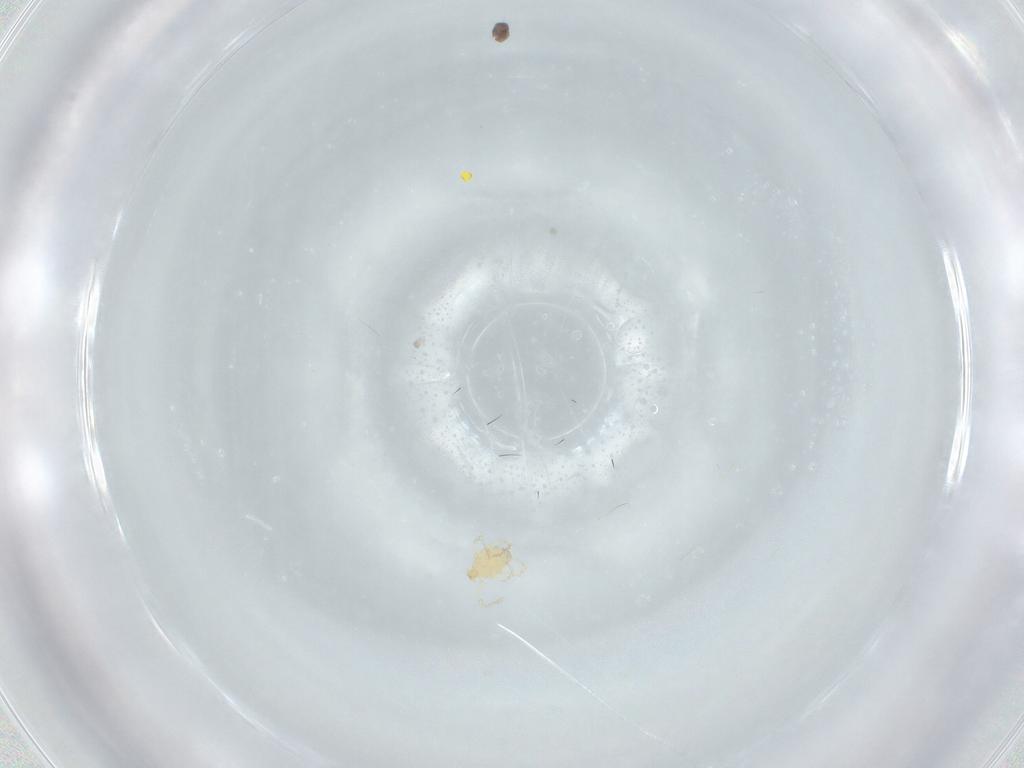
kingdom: Animalia
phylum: Arthropoda
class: Arachnida
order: Trombidiformes
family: Erythraeidae
